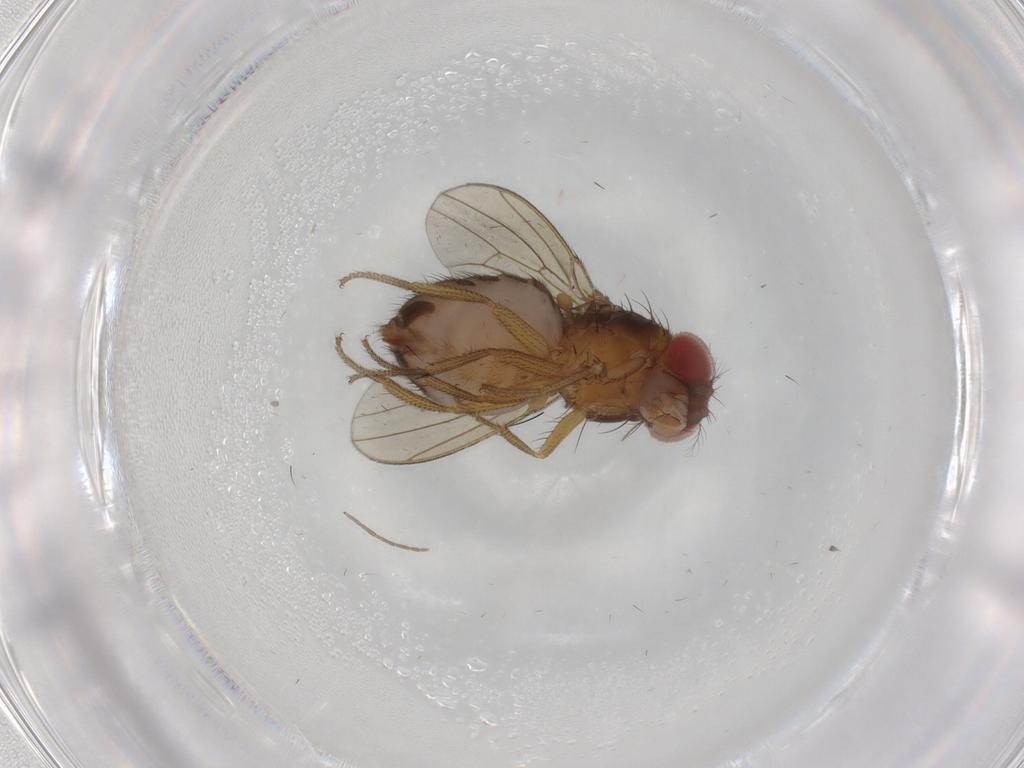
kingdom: Animalia
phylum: Arthropoda
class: Insecta
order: Diptera
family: Drosophilidae
